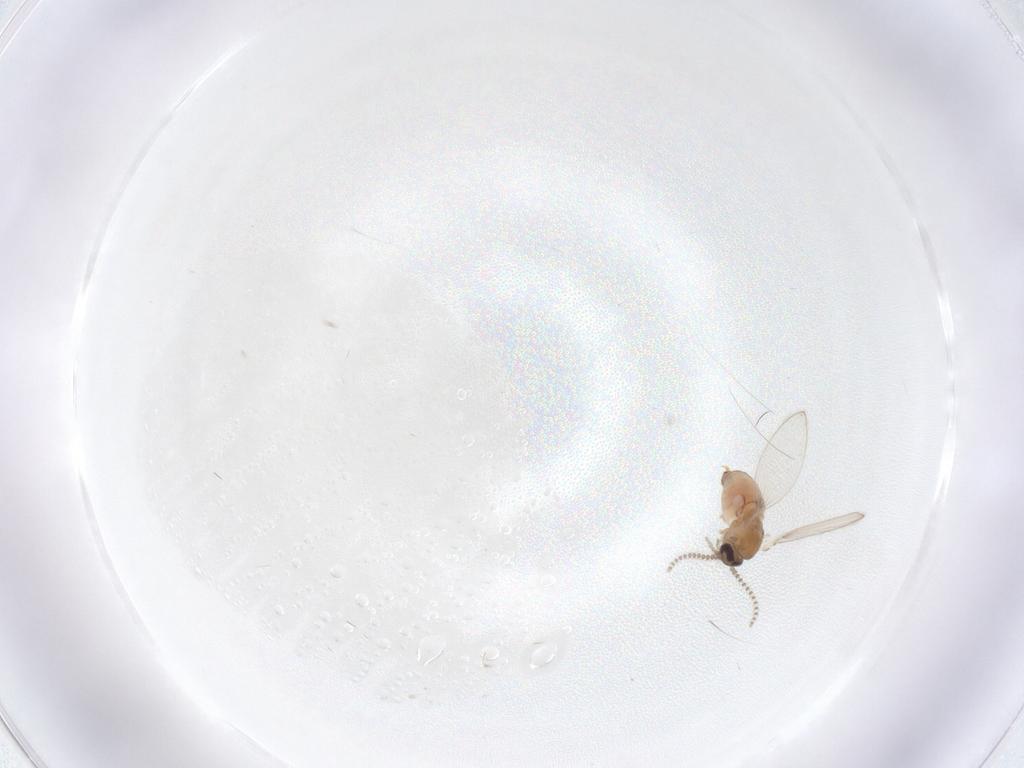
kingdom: Animalia
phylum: Arthropoda
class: Insecta
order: Diptera
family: Psychodidae
